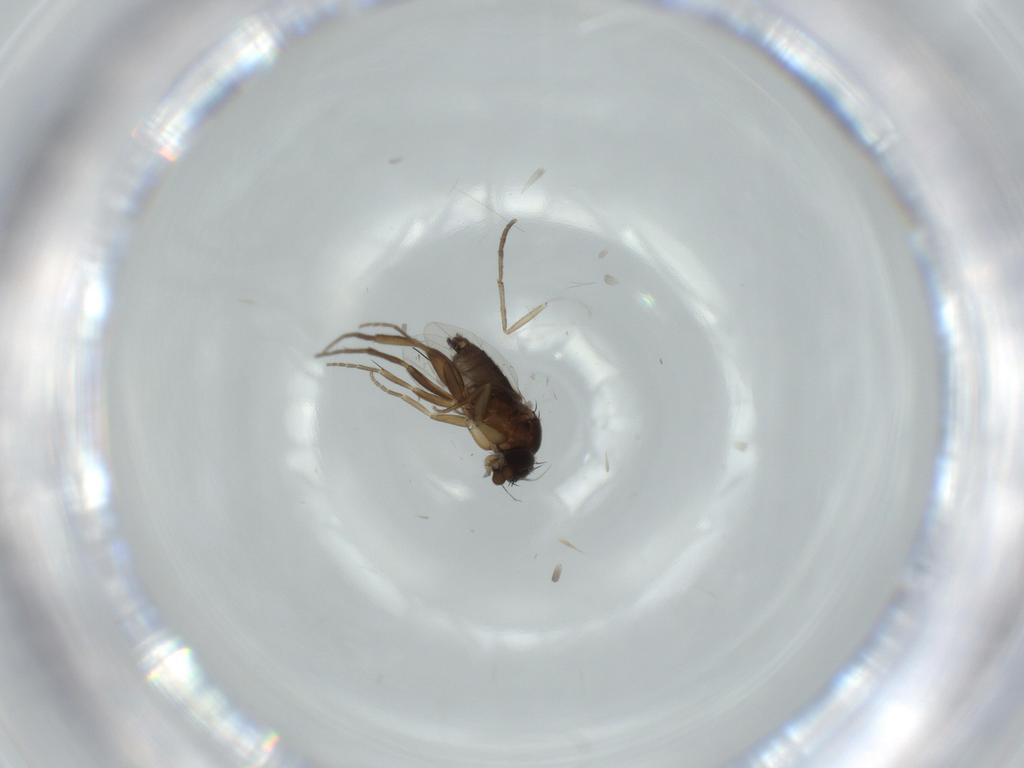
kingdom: Animalia
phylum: Arthropoda
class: Insecta
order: Diptera
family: Phoridae
